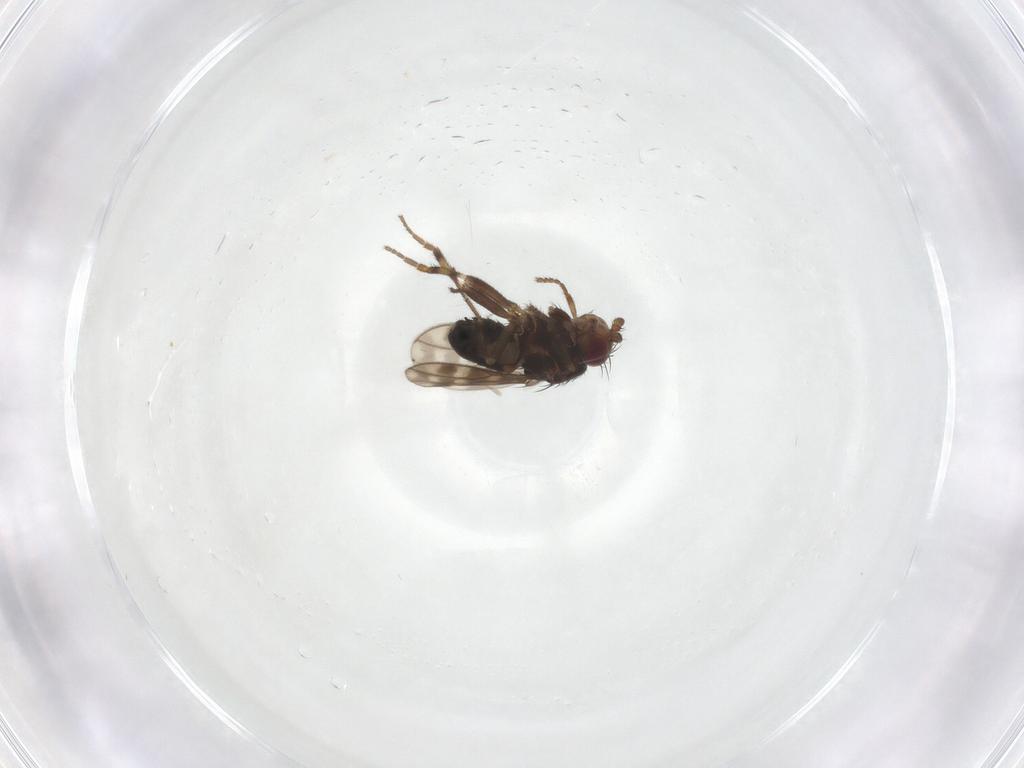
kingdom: Animalia
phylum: Arthropoda
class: Insecta
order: Diptera
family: Sphaeroceridae
